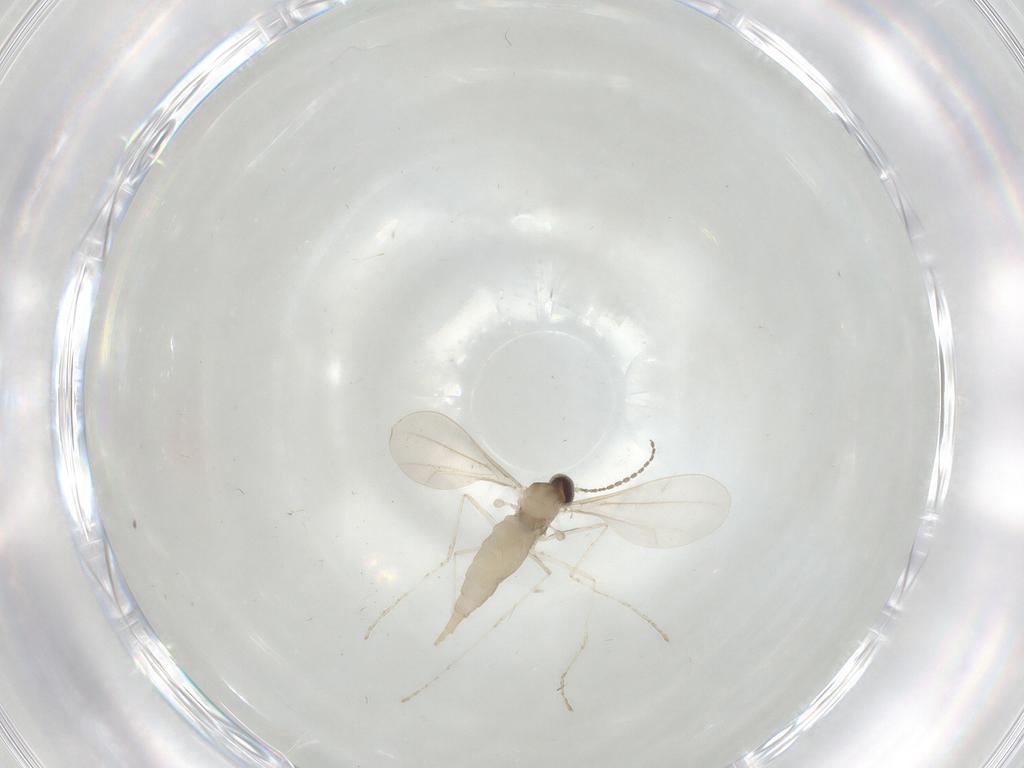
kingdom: Animalia
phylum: Arthropoda
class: Insecta
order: Diptera
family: Cecidomyiidae
